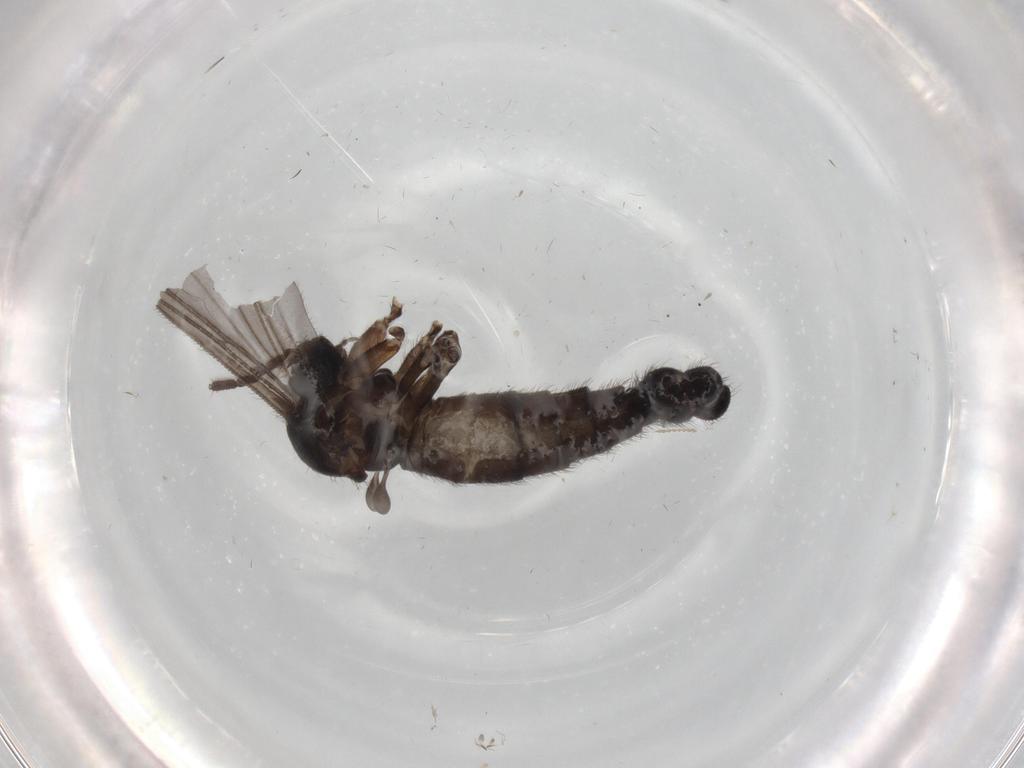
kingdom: Animalia
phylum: Arthropoda
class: Insecta
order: Diptera
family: Sciaridae
